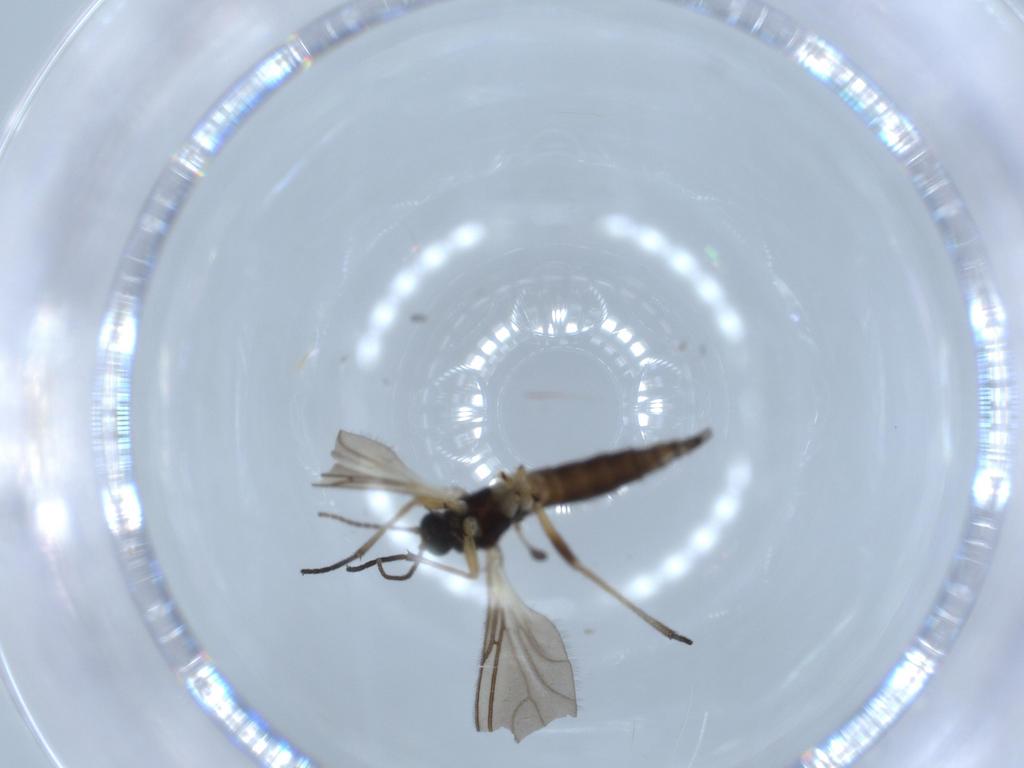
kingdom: Animalia
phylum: Arthropoda
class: Insecta
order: Diptera
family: Sciaridae
